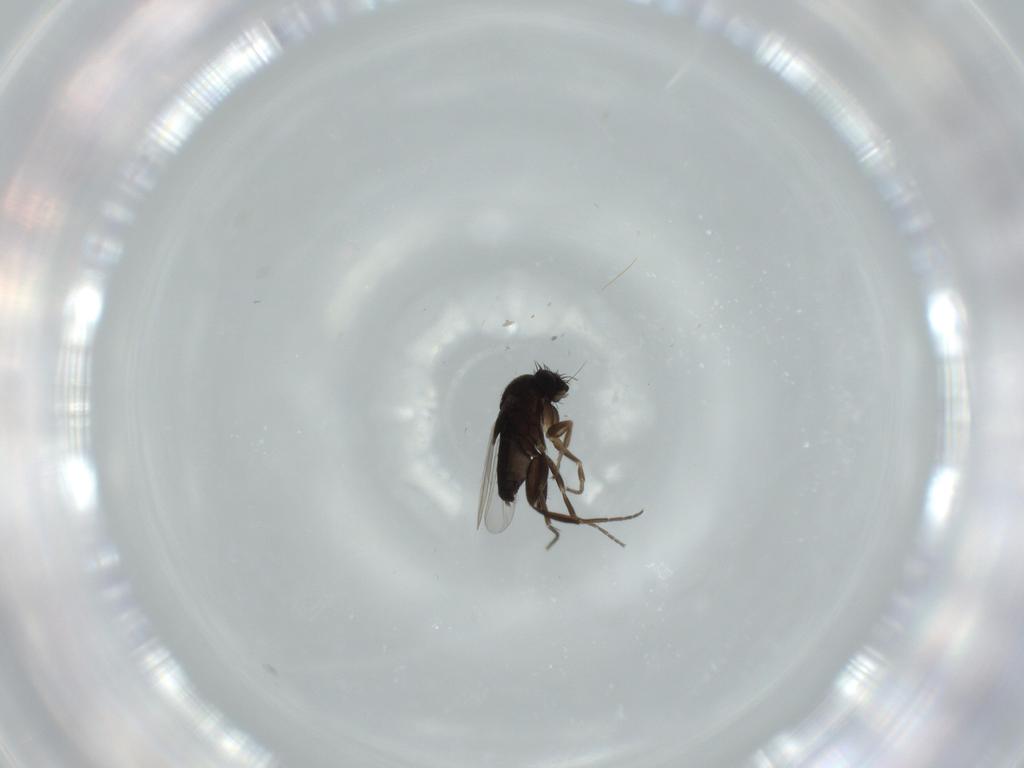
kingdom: Animalia
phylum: Arthropoda
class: Insecta
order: Diptera
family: Phoridae
